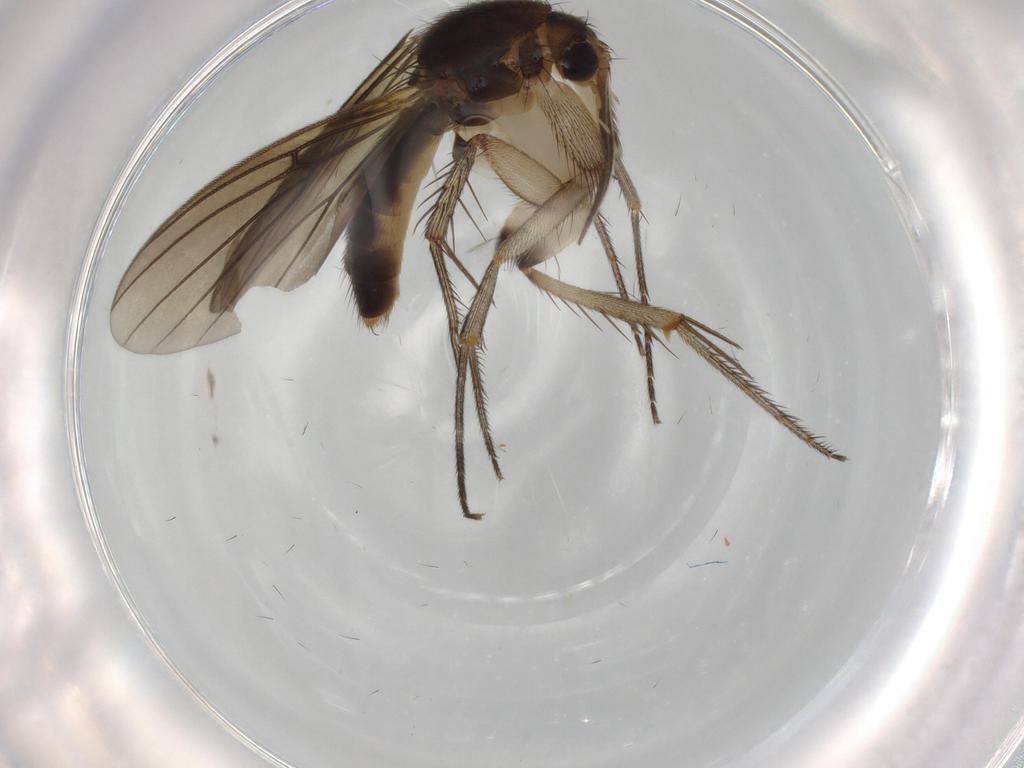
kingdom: Animalia
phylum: Arthropoda
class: Insecta
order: Diptera
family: Mycetophilidae
